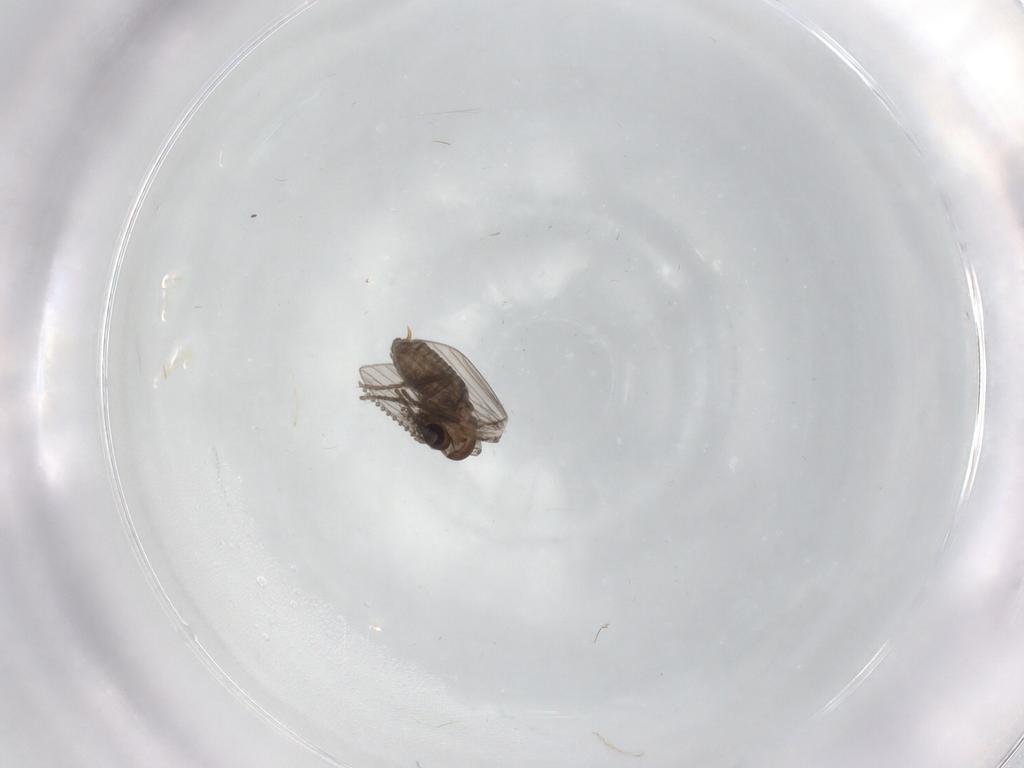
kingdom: Animalia
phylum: Arthropoda
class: Insecta
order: Diptera
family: Psychodidae
